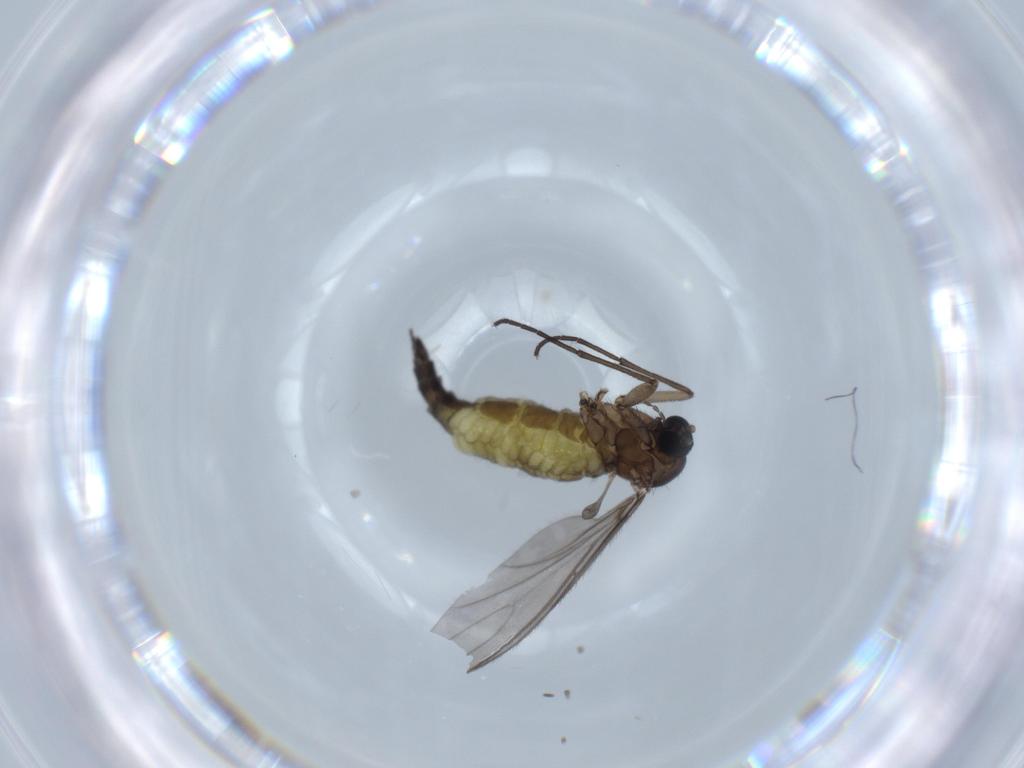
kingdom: Animalia
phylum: Arthropoda
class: Insecta
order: Diptera
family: Sciaridae
